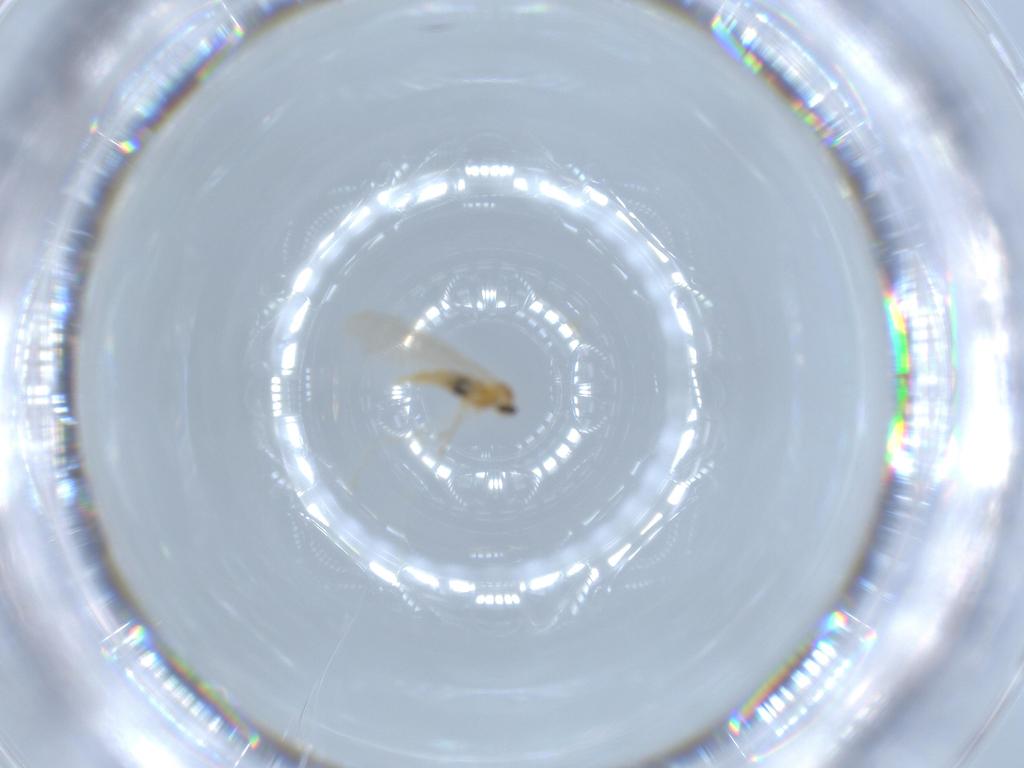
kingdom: Animalia
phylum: Arthropoda
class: Insecta
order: Diptera
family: Cecidomyiidae
